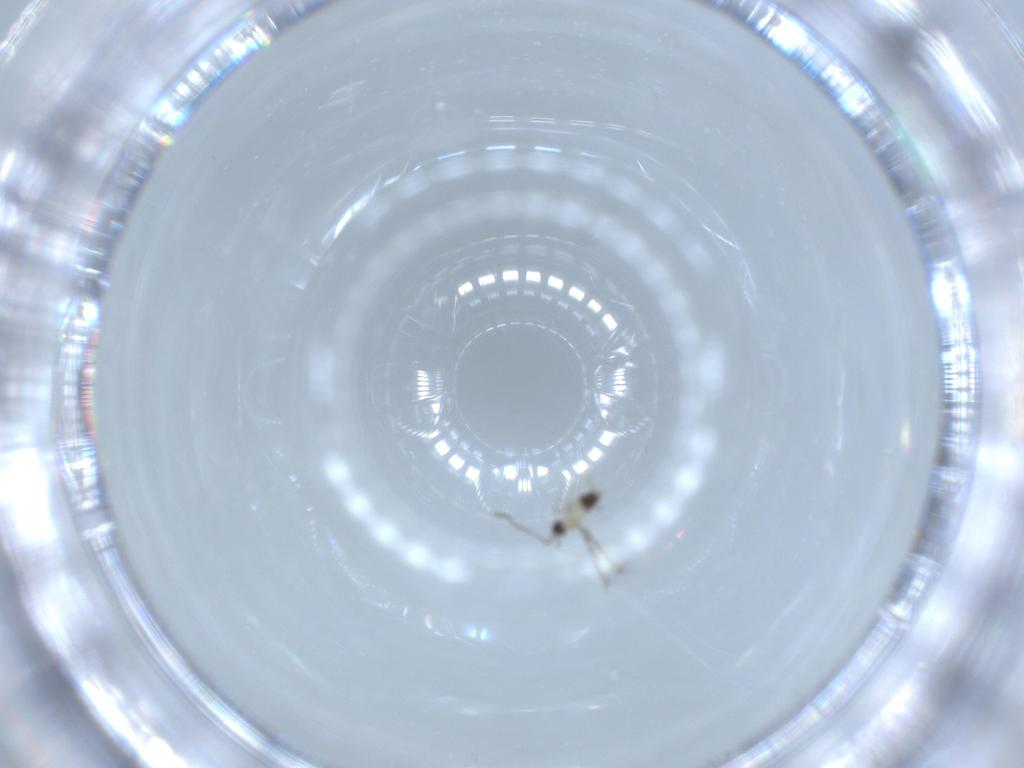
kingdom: Animalia
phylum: Arthropoda
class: Insecta
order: Hymenoptera
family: Mymaridae
